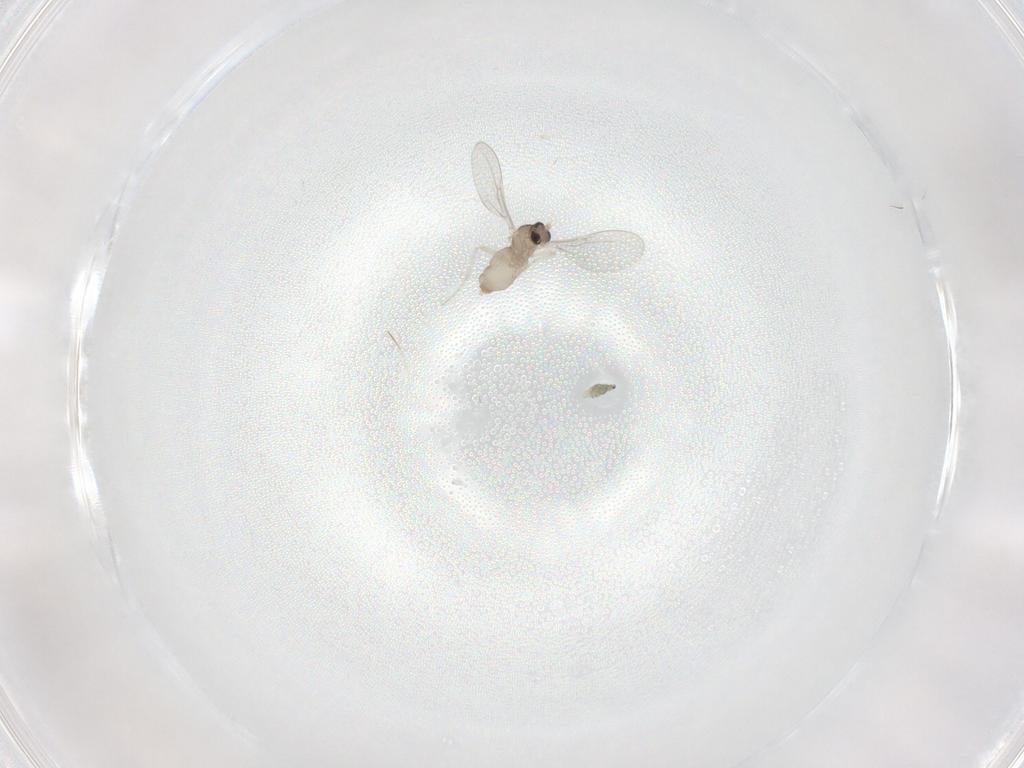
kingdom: Animalia
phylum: Arthropoda
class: Insecta
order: Diptera
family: Cecidomyiidae
